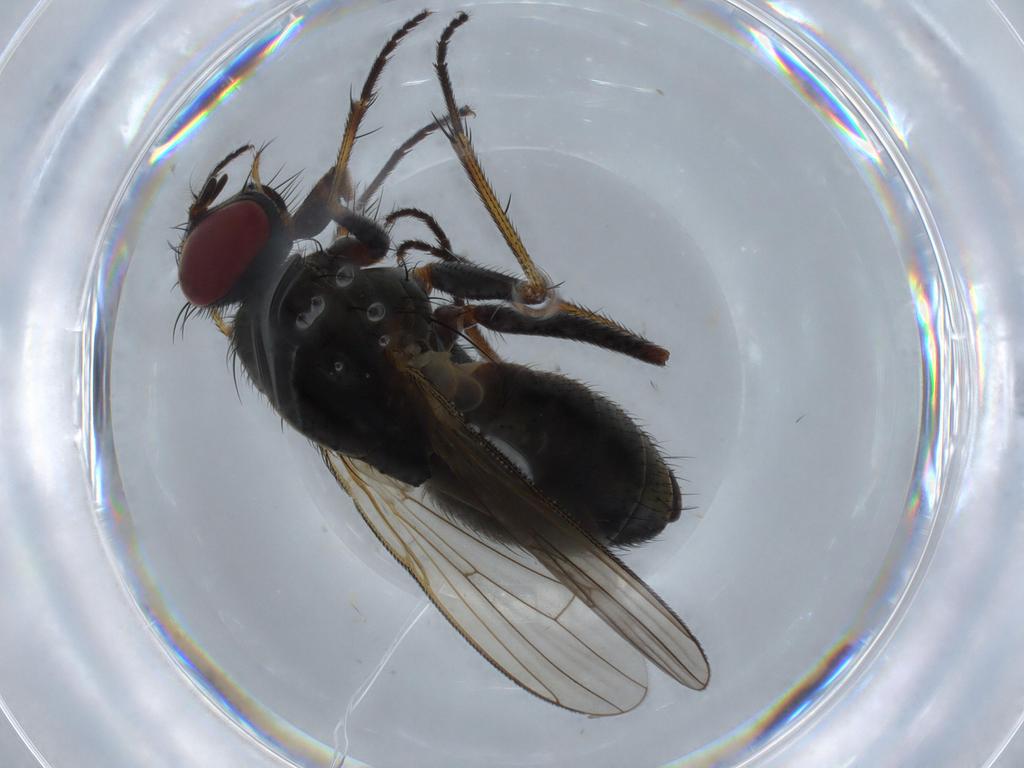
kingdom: Animalia
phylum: Arthropoda
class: Insecta
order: Diptera
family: Muscidae
